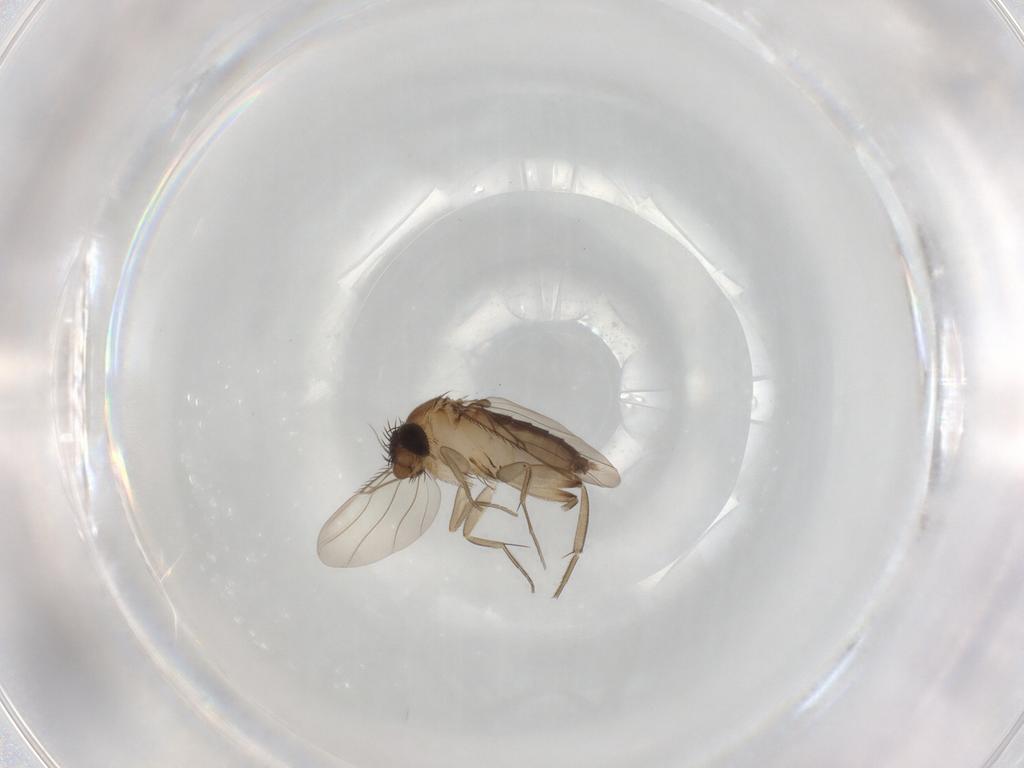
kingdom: Animalia
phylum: Arthropoda
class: Insecta
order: Diptera
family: Phoridae
